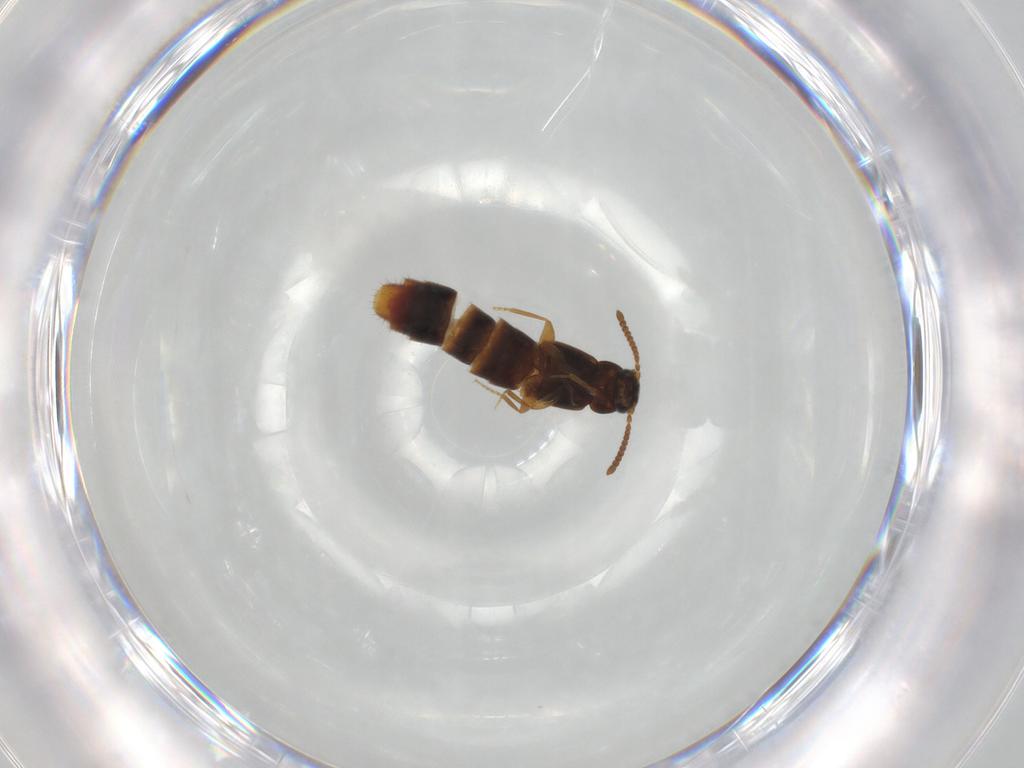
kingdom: Animalia
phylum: Arthropoda
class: Insecta
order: Coleoptera
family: Staphylinidae
